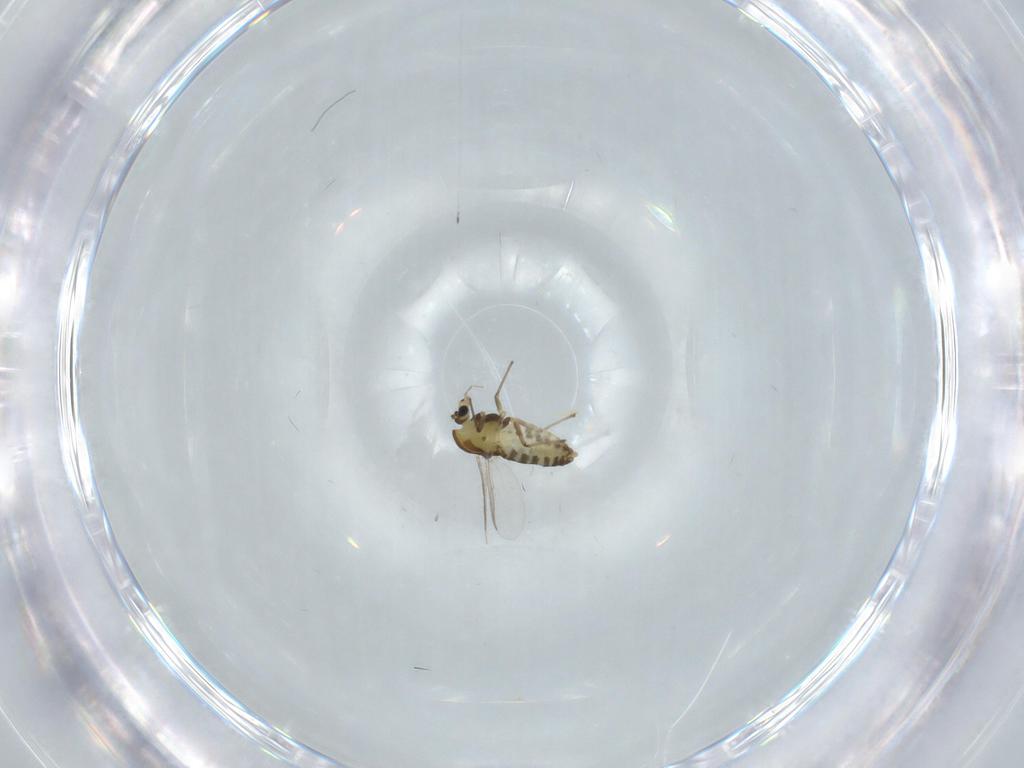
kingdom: Animalia
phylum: Arthropoda
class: Insecta
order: Diptera
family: Chironomidae
